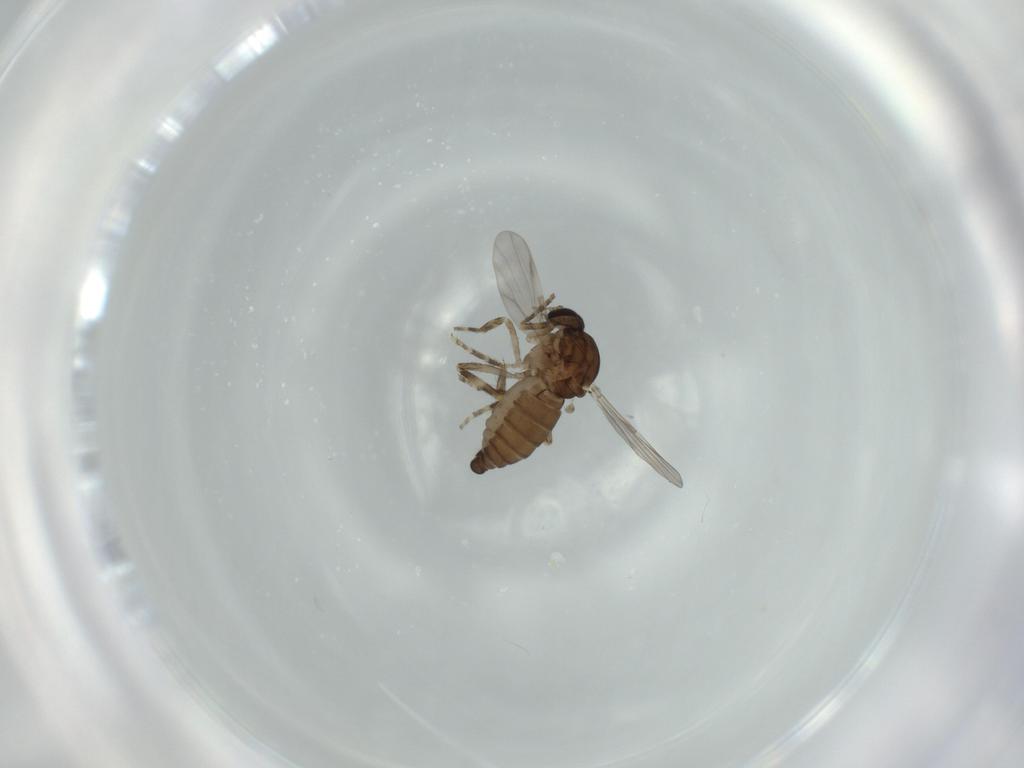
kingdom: Animalia
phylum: Arthropoda
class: Insecta
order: Diptera
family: Ceratopogonidae
